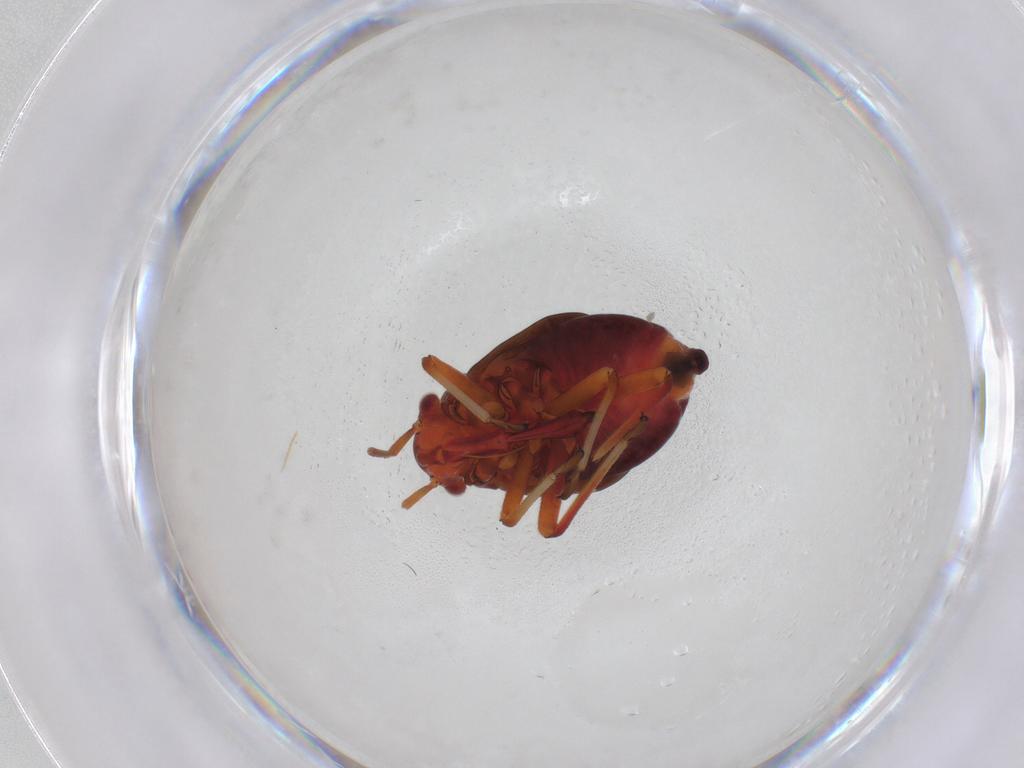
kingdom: Animalia
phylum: Arthropoda
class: Insecta
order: Hemiptera
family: Miridae
